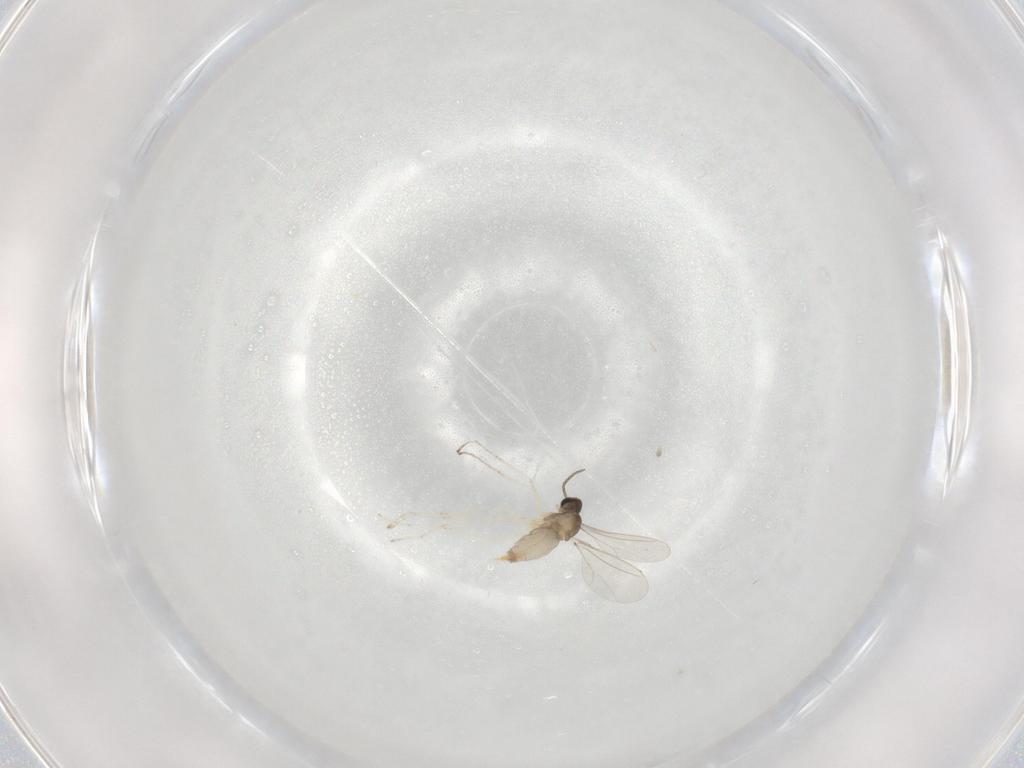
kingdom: Animalia
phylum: Arthropoda
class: Insecta
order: Diptera
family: Cecidomyiidae
